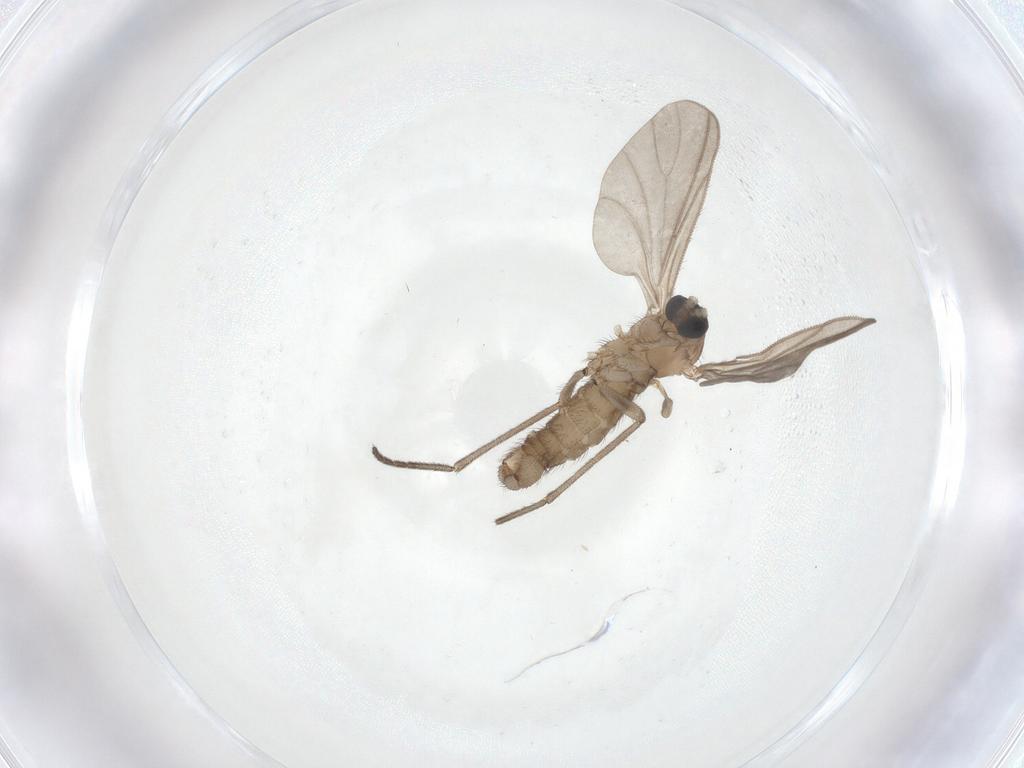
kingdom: Animalia
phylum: Arthropoda
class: Insecta
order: Diptera
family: Sciaridae
